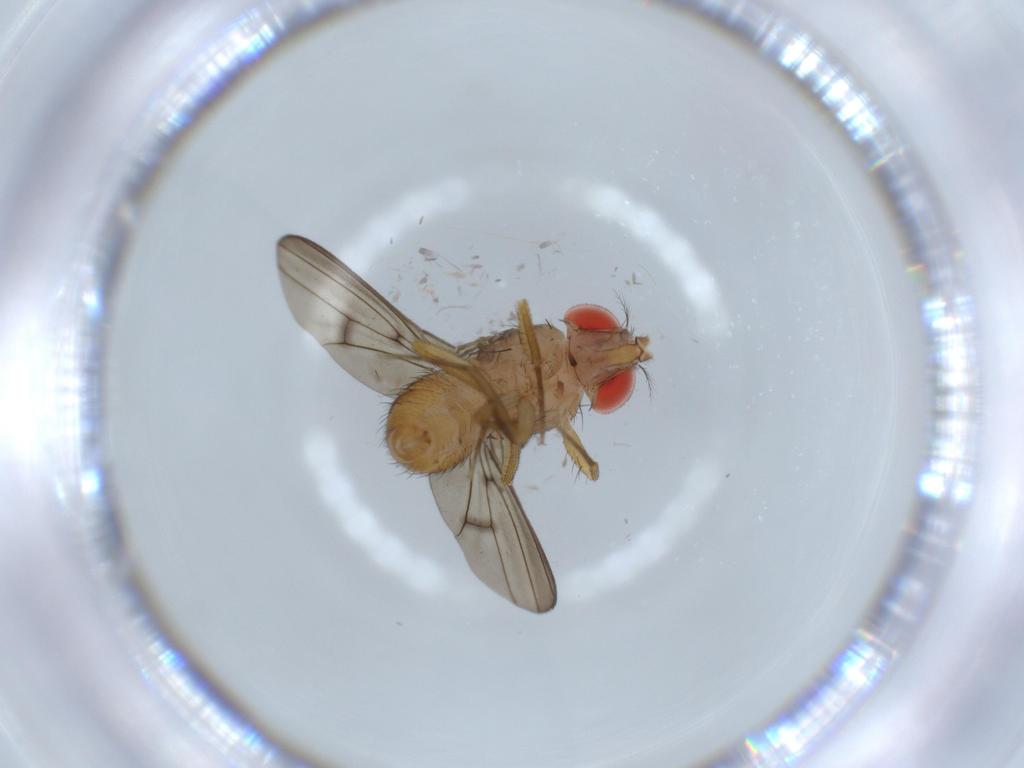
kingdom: Animalia
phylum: Arthropoda
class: Insecta
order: Diptera
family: Drosophilidae
